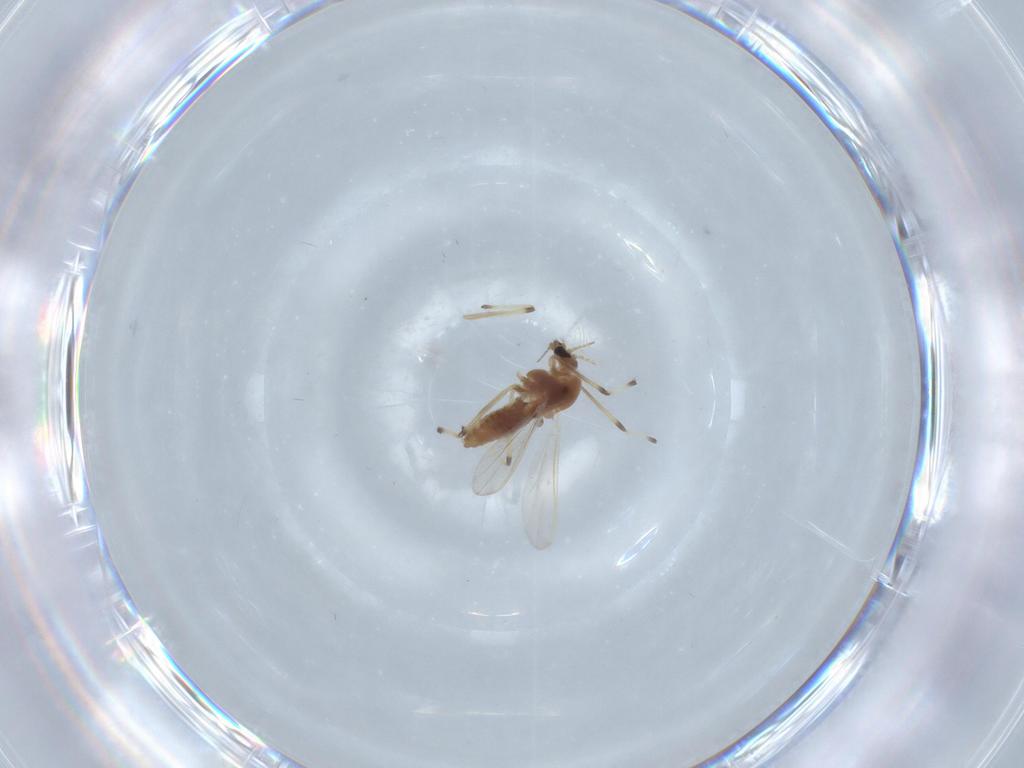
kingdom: Animalia
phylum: Arthropoda
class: Insecta
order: Diptera
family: Chironomidae
